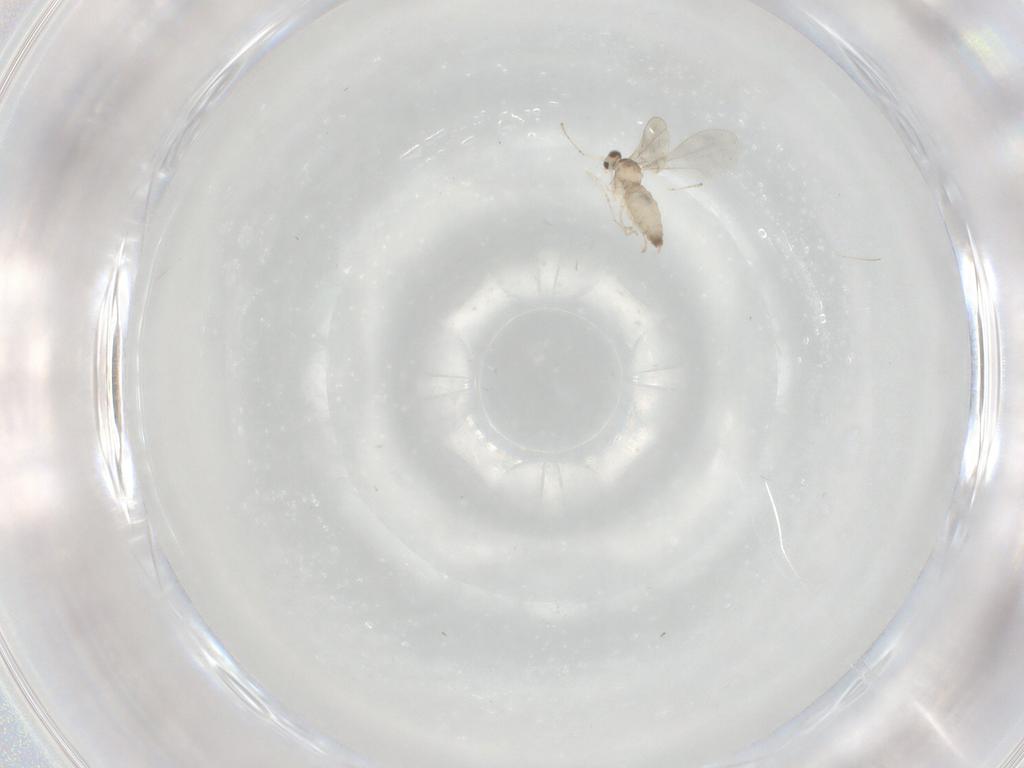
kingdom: Animalia
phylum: Arthropoda
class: Insecta
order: Diptera
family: Cecidomyiidae
